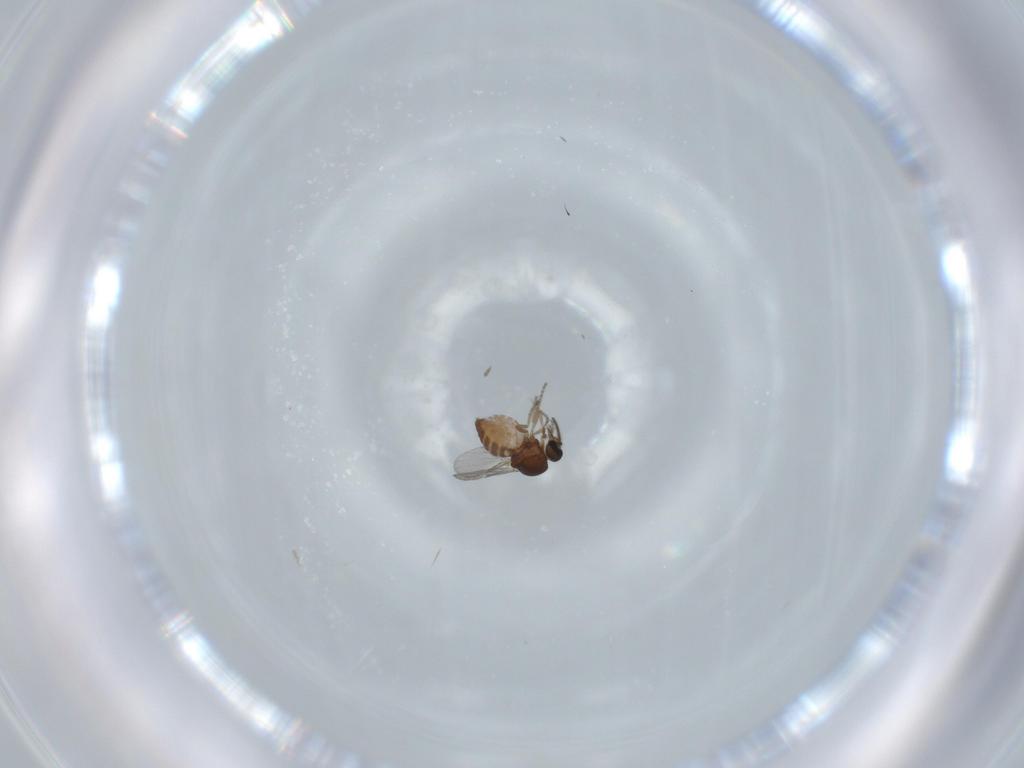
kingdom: Animalia
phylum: Arthropoda
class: Insecta
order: Diptera
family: Ceratopogonidae
